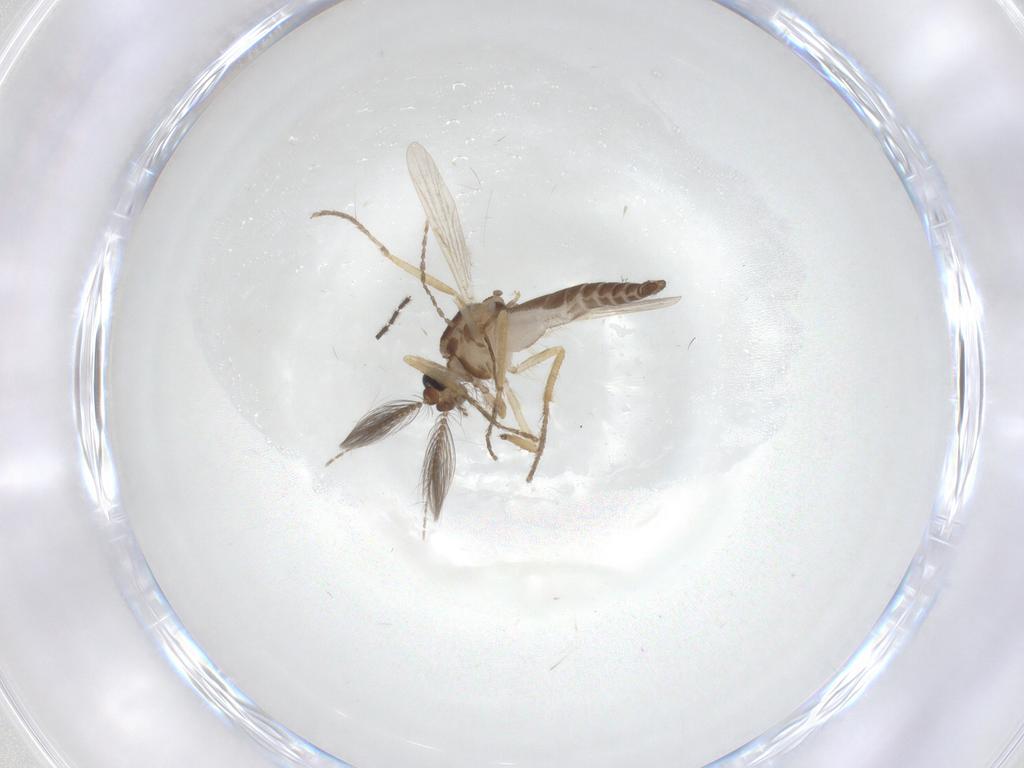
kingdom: Animalia
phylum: Arthropoda
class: Insecta
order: Diptera
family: Ceratopogonidae
